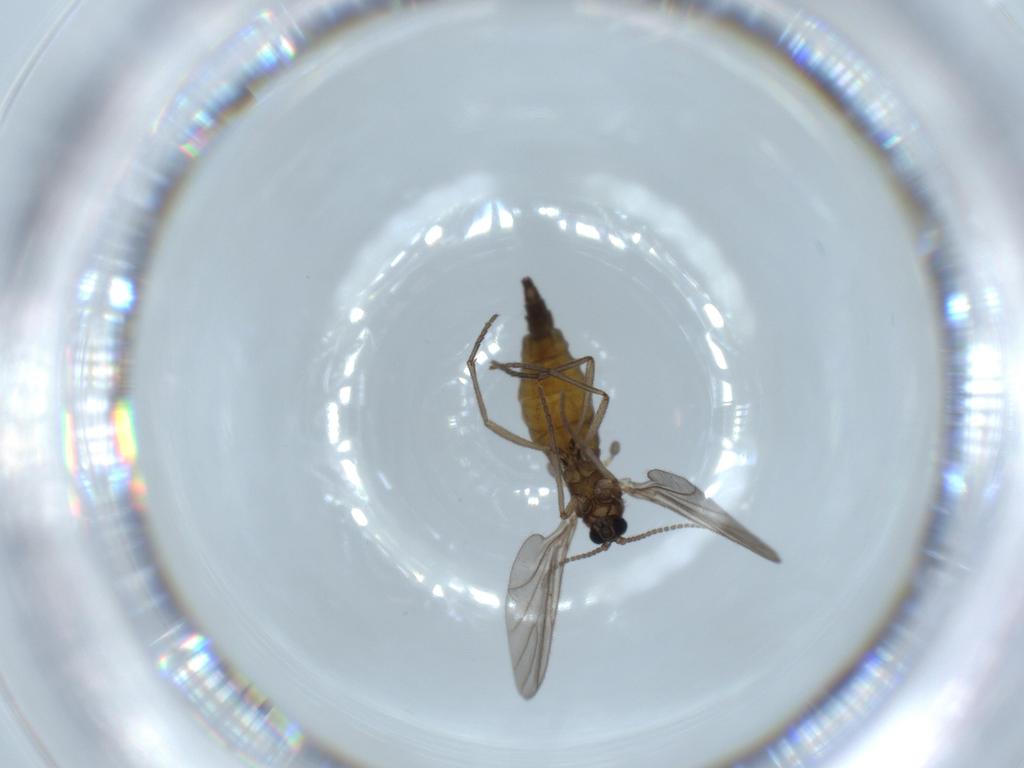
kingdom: Animalia
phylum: Arthropoda
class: Insecta
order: Diptera
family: Sciaridae
